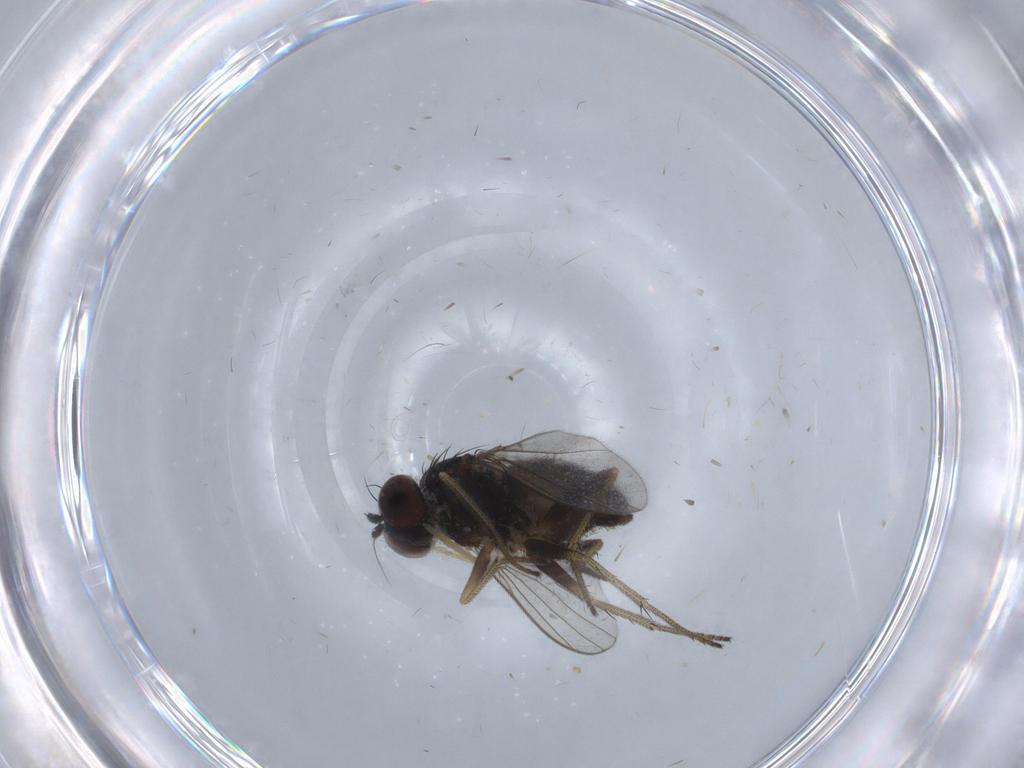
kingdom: Animalia
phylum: Arthropoda
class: Insecta
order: Diptera
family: Chironomidae
